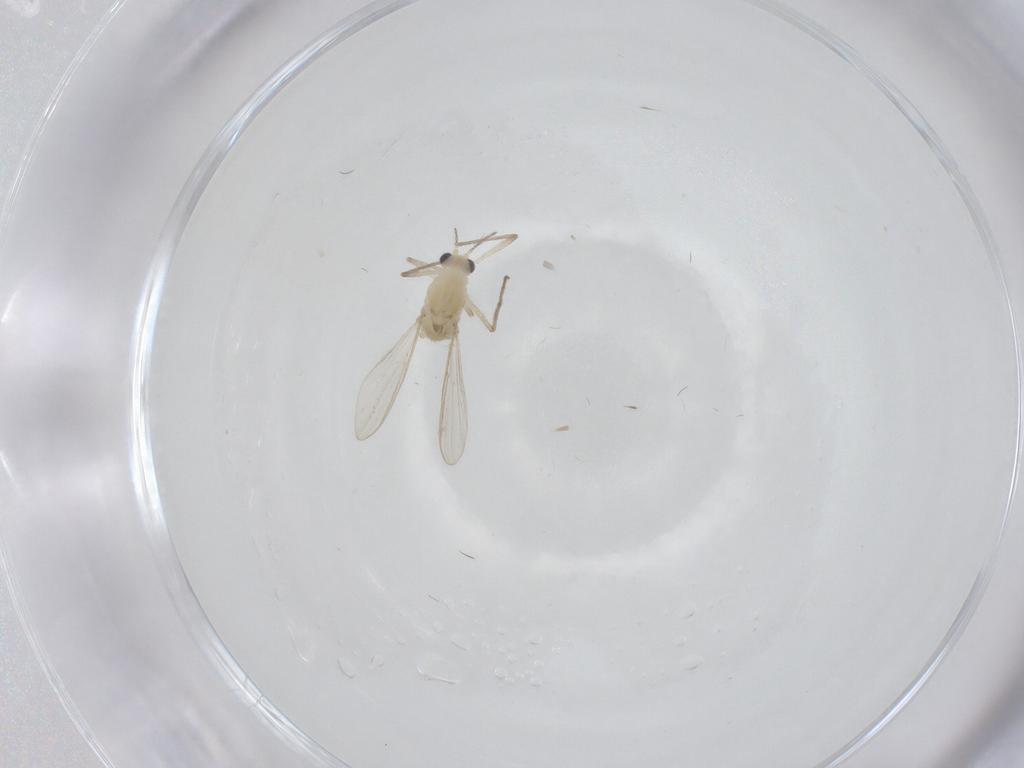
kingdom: Animalia
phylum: Arthropoda
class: Insecta
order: Diptera
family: Chironomidae
